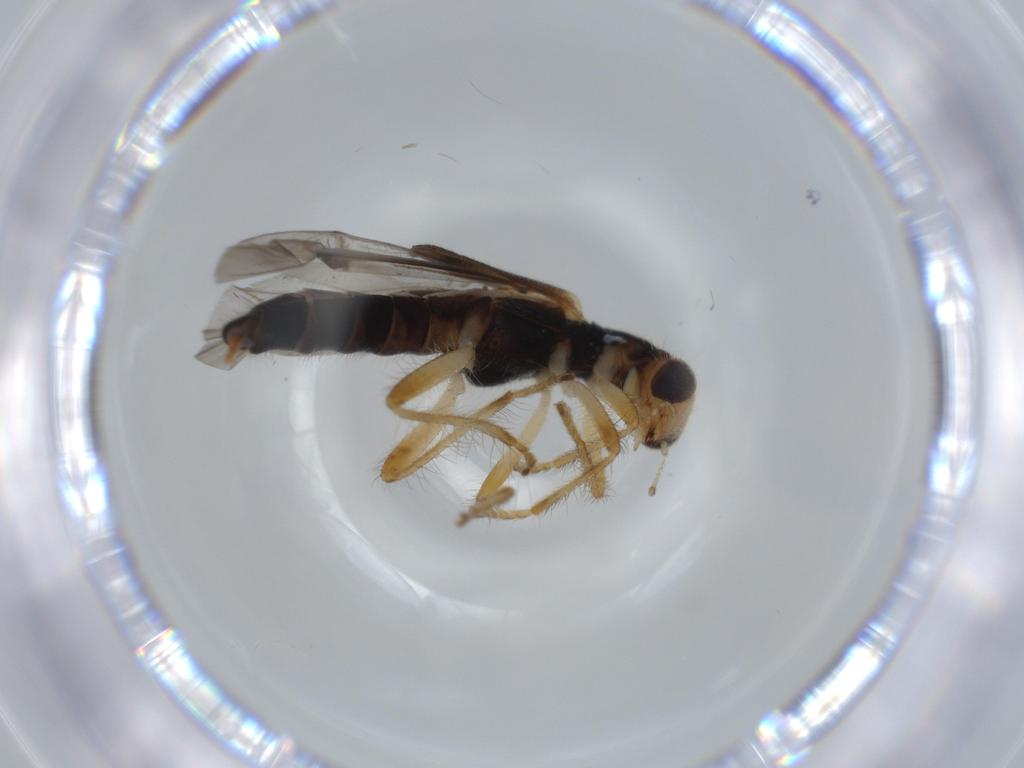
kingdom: Animalia
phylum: Arthropoda
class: Insecta
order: Coleoptera
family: Cleridae
